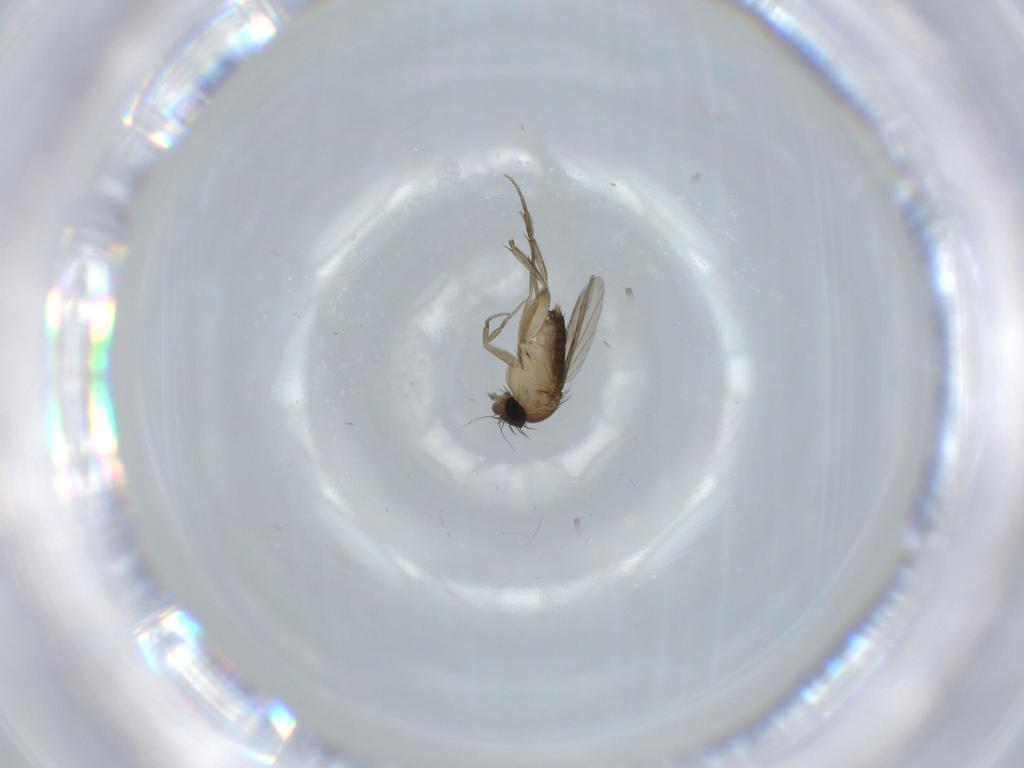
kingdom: Animalia
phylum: Arthropoda
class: Insecta
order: Diptera
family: Phoridae
